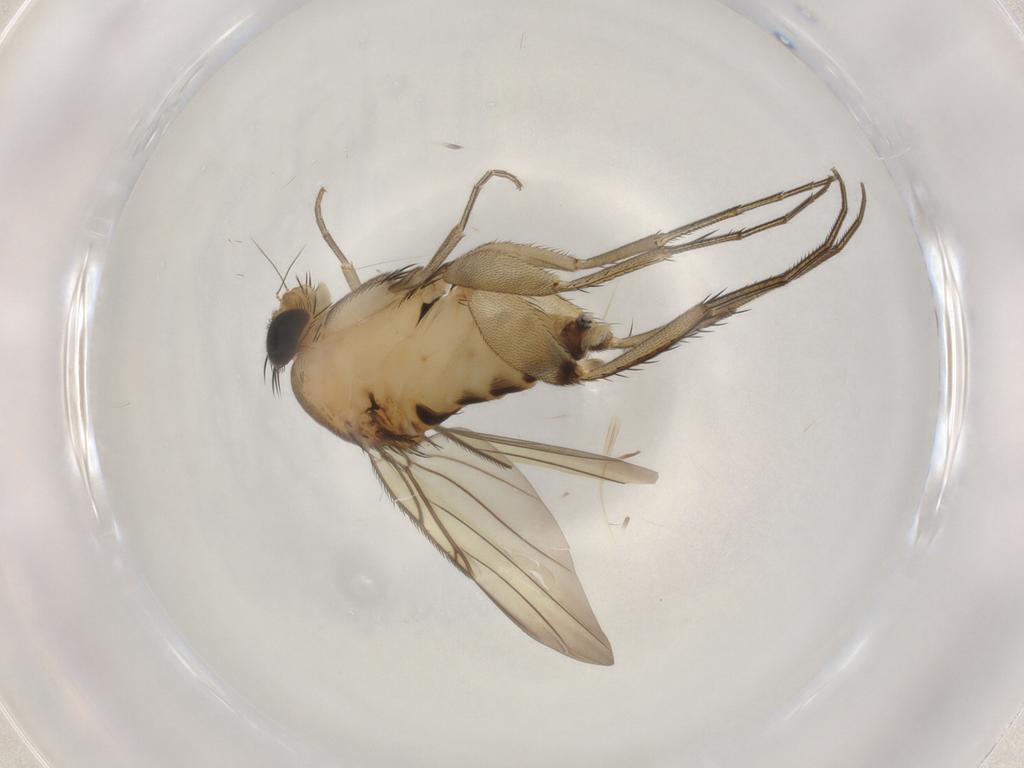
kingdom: Animalia
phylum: Arthropoda
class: Insecta
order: Diptera
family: Phoridae
